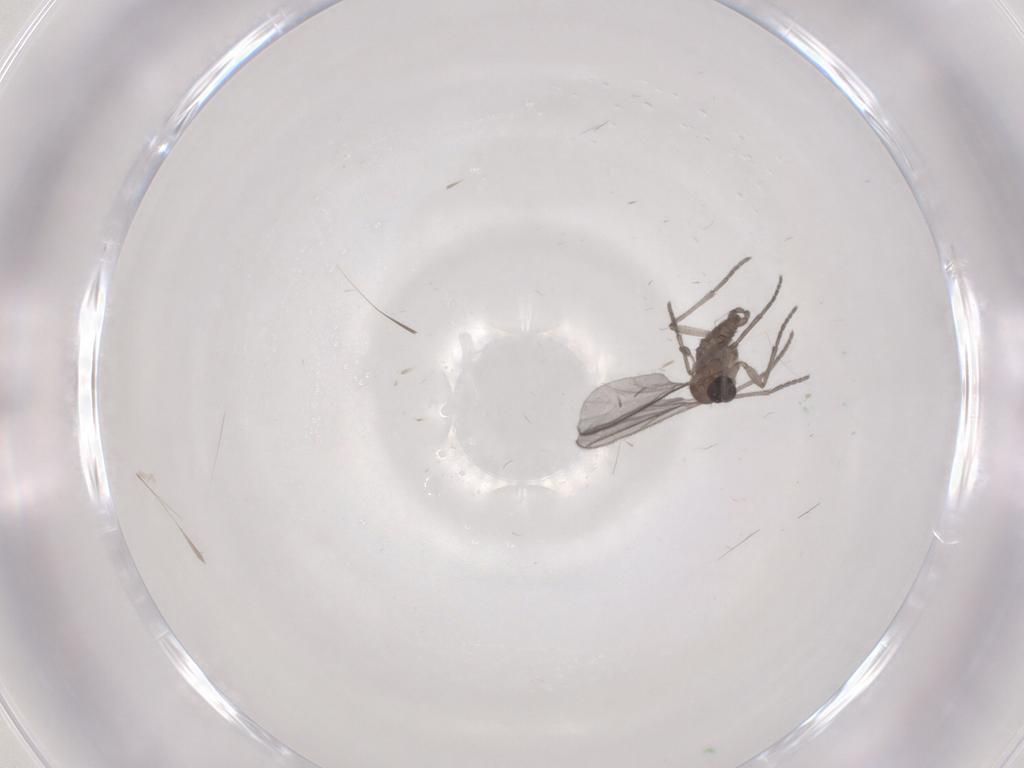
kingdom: Animalia
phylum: Arthropoda
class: Insecta
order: Diptera
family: Sciaridae
